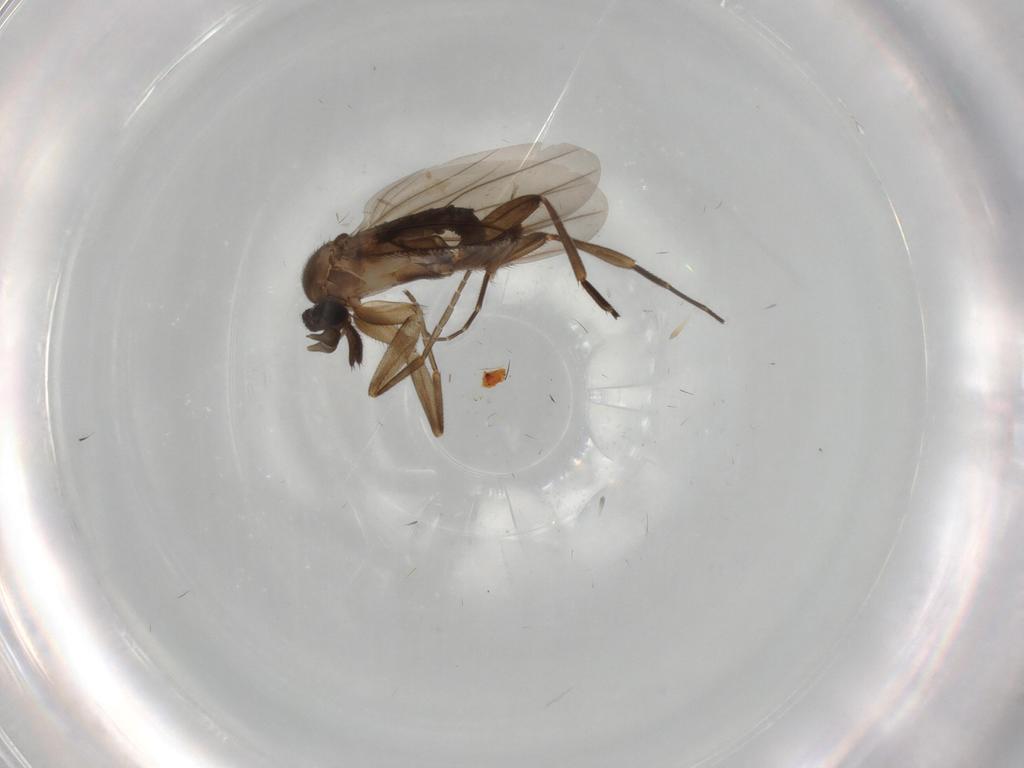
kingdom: Animalia
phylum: Arthropoda
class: Insecta
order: Diptera
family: Phoridae
